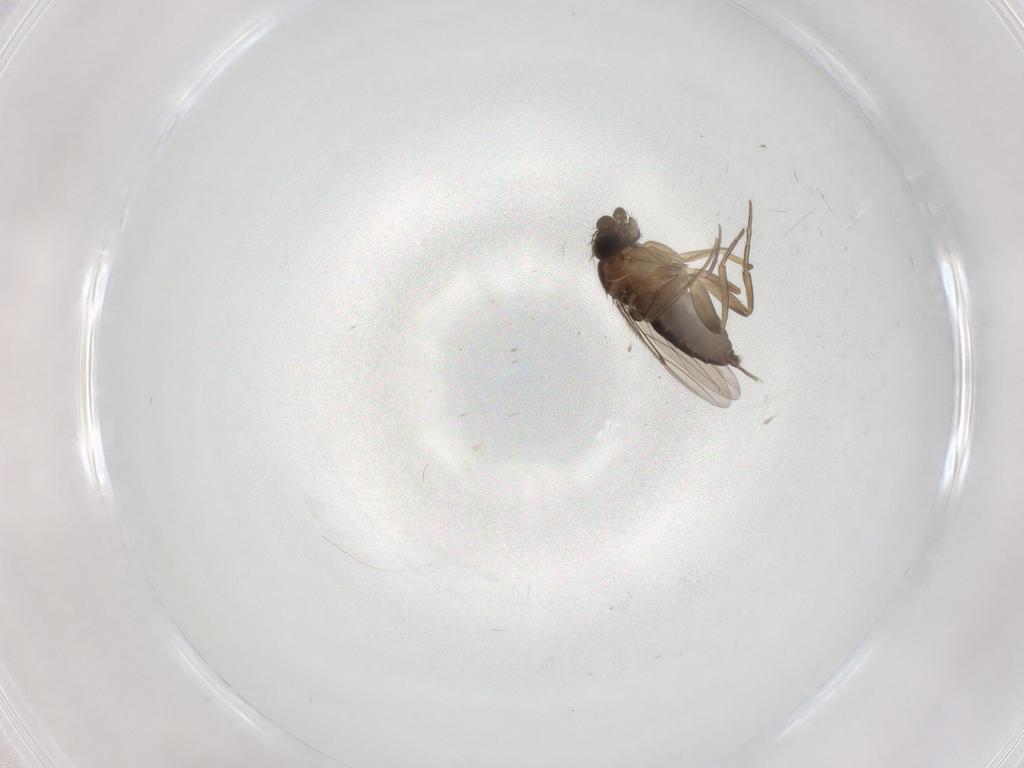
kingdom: Animalia
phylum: Arthropoda
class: Insecta
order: Diptera
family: Phoridae
